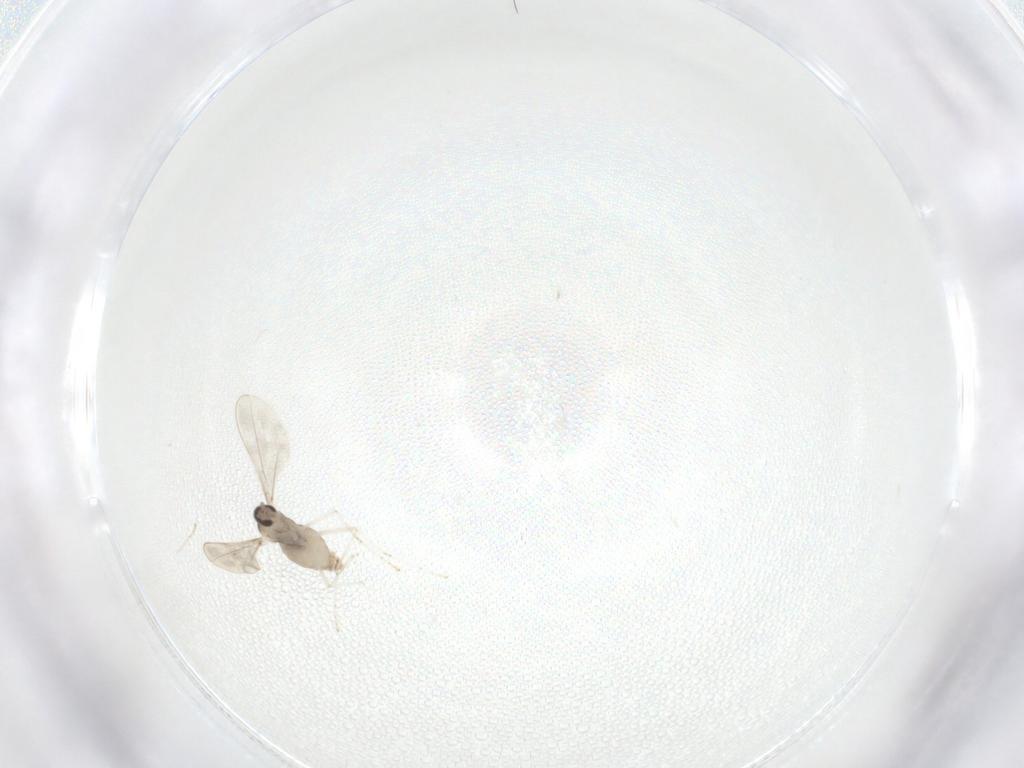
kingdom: Animalia
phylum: Arthropoda
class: Insecta
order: Diptera
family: Cecidomyiidae
